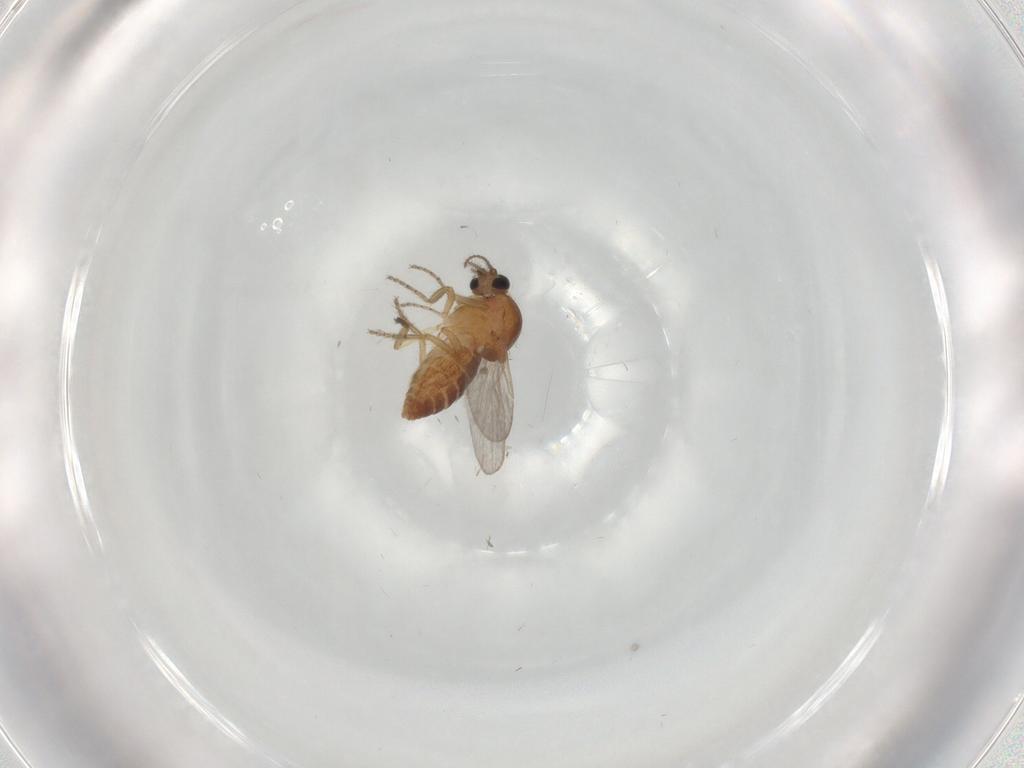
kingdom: Animalia
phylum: Arthropoda
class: Insecta
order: Diptera
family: Ceratopogonidae
